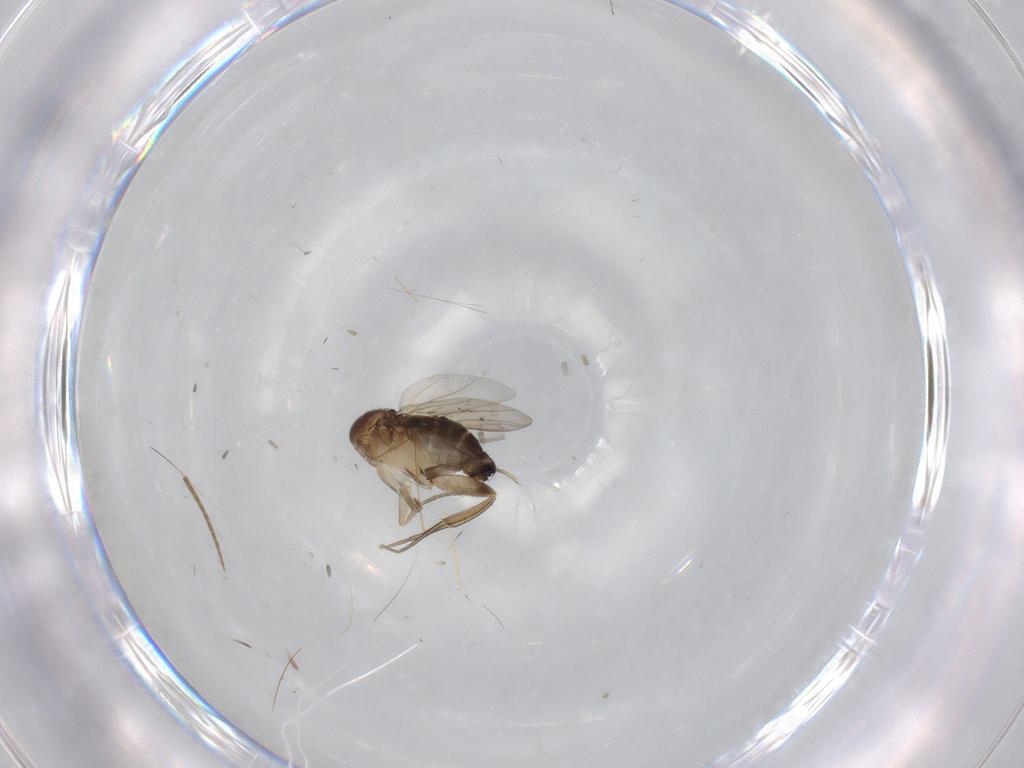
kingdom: Animalia
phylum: Arthropoda
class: Insecta
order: Diptera
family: Mycetophilidae
